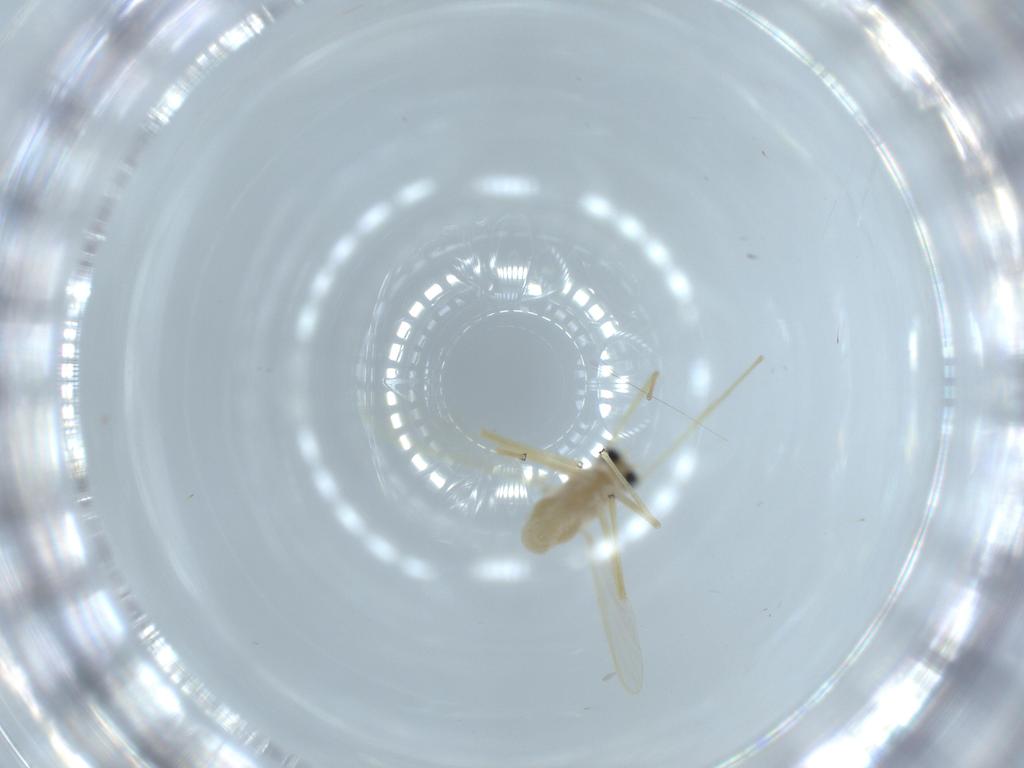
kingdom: Animalia
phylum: Arthropoda
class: Insecta
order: Diptera
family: Chironomidae
